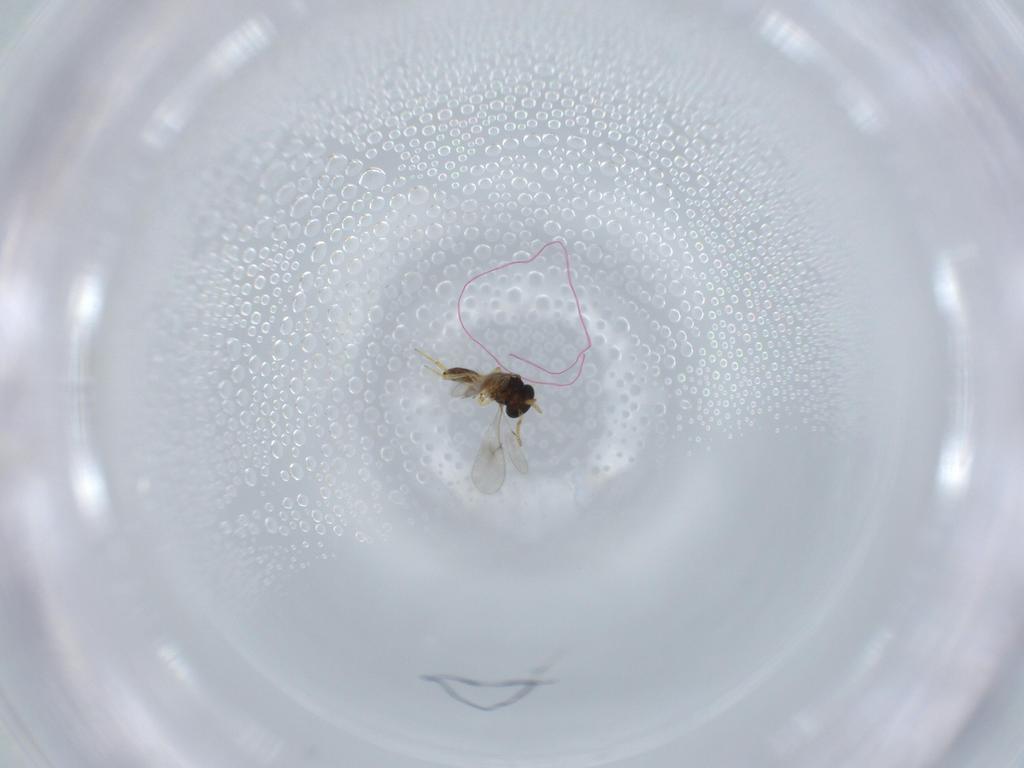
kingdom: Animalia
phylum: Arthropoda
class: Insecta
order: Hymenoptera
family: Scelionidae
